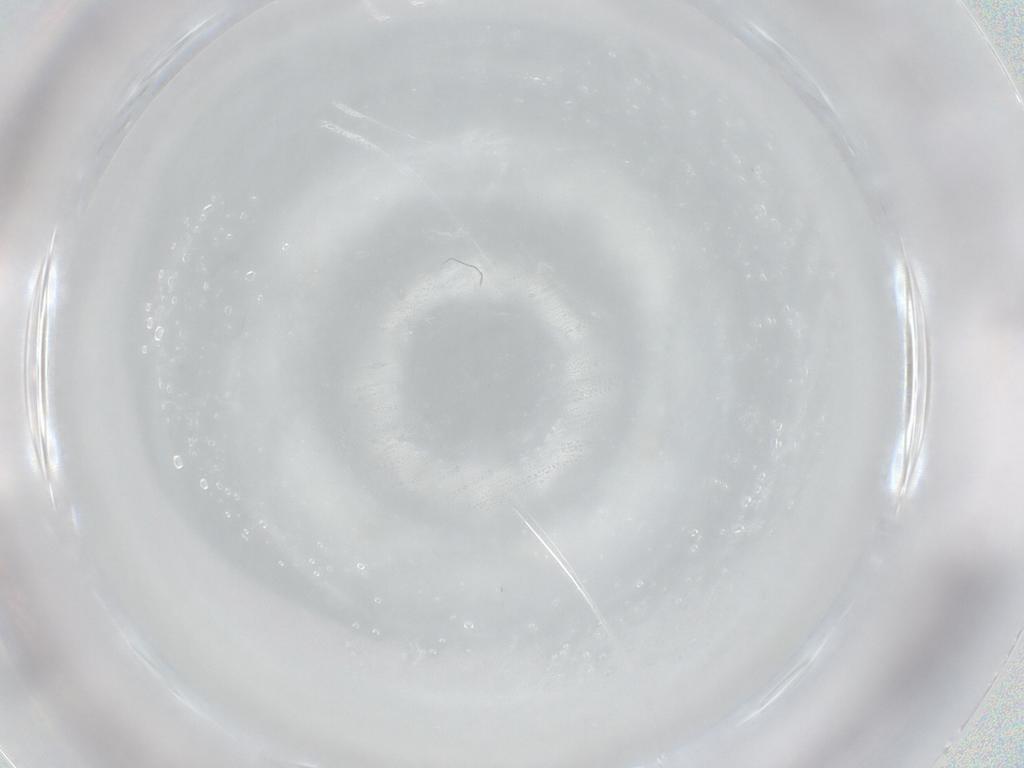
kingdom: Animalia
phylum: Arthropoda
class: Insecta
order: Diptera
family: Cecidomyiidae
